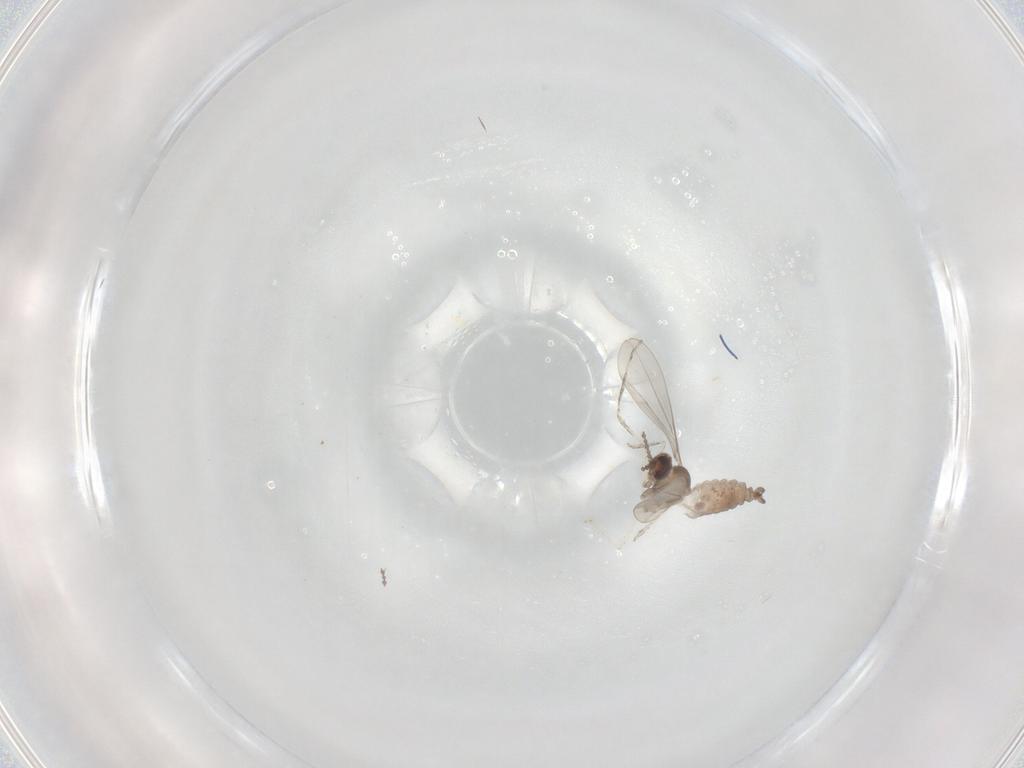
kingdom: Animalia
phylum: Arthropoda
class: Insecta
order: Diptera
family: Cecidomyiidae
